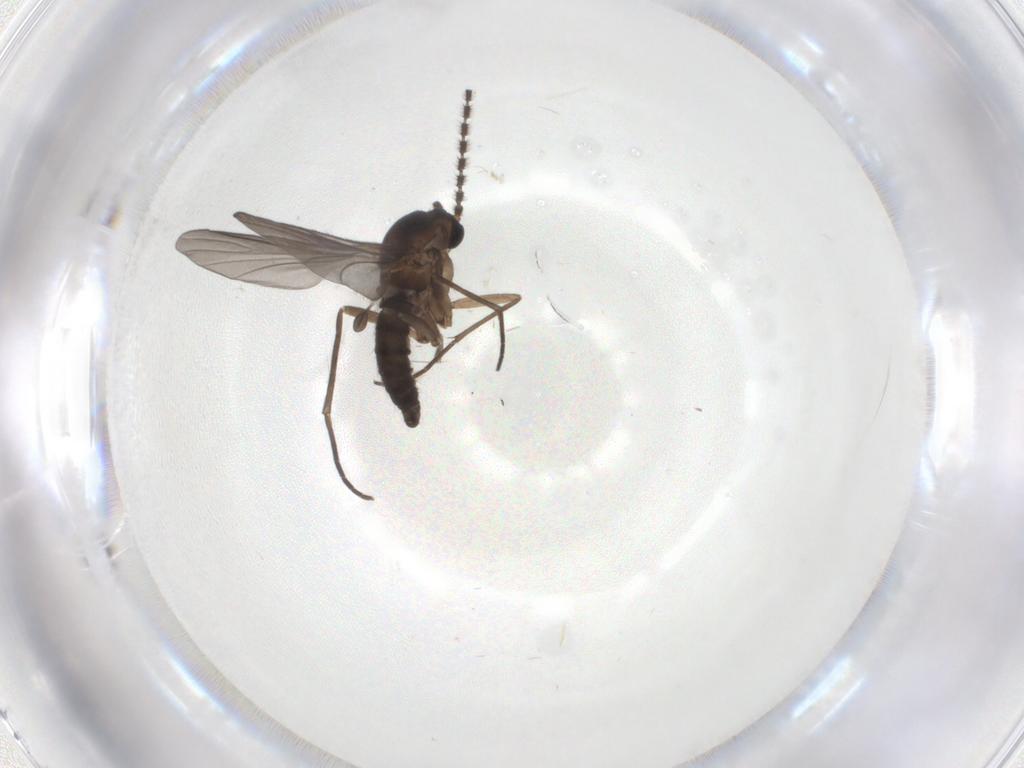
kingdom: Animalia
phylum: Arthropoda
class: Insecta
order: Diptera
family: Sciaridae
